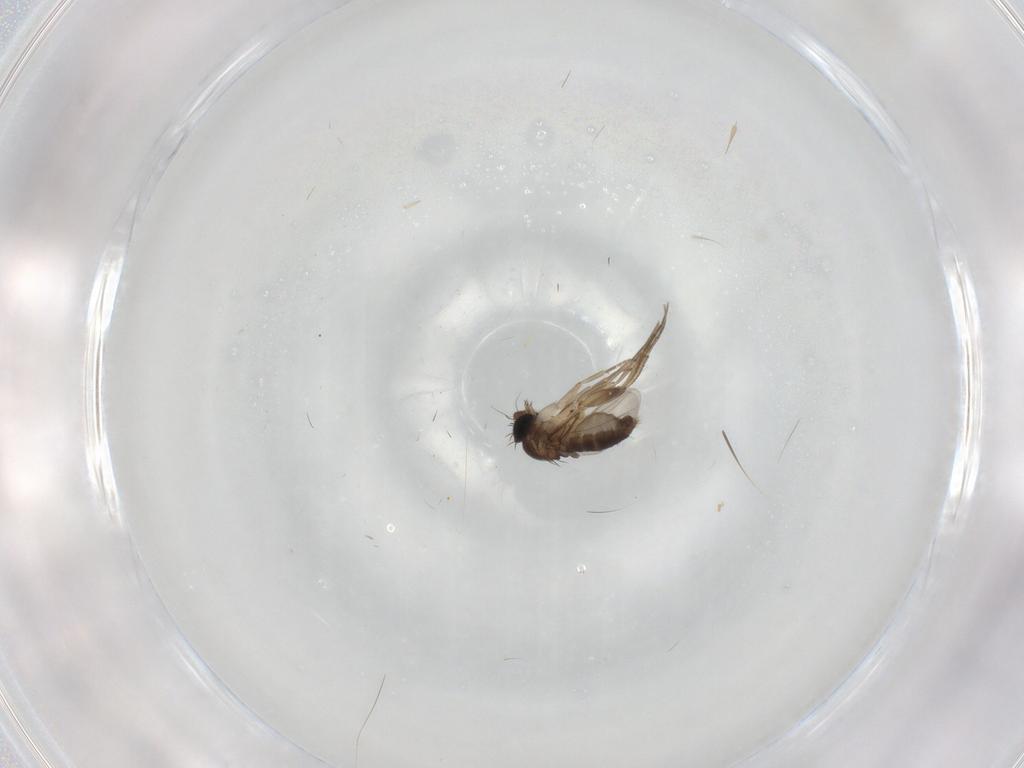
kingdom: Animalia
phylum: Arthropoda
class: Insecta
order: Diptera
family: Phoridae
